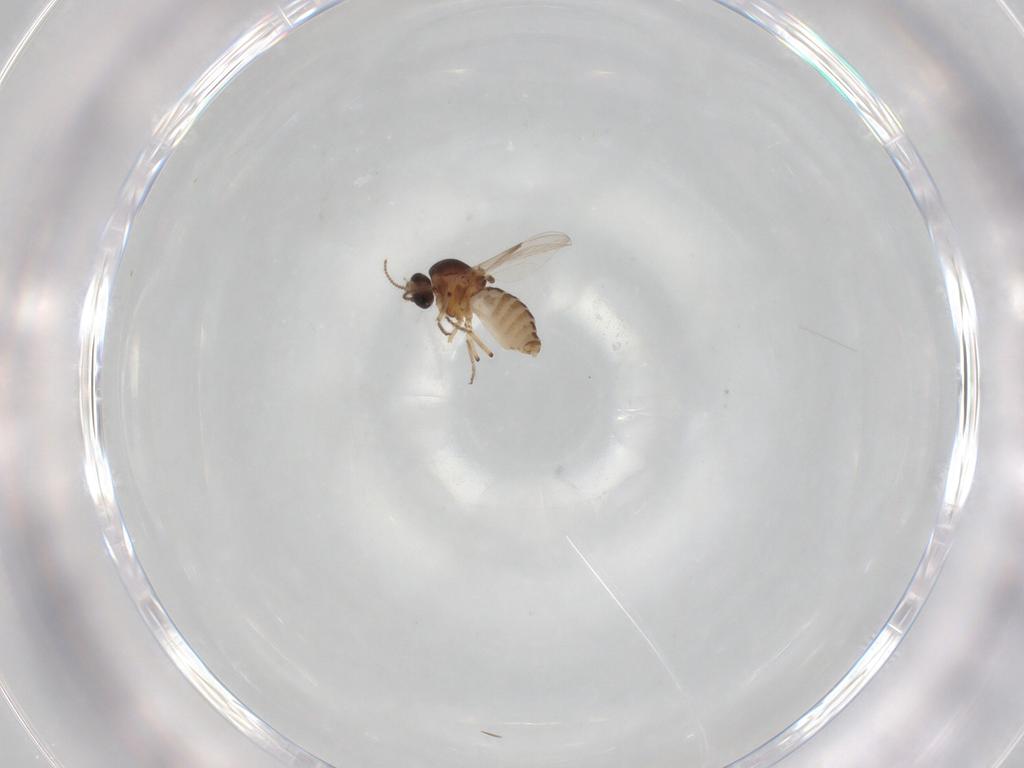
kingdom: Animalia
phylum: Arthropoda
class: Insecta
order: Diptera
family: Ceratopogonidae
